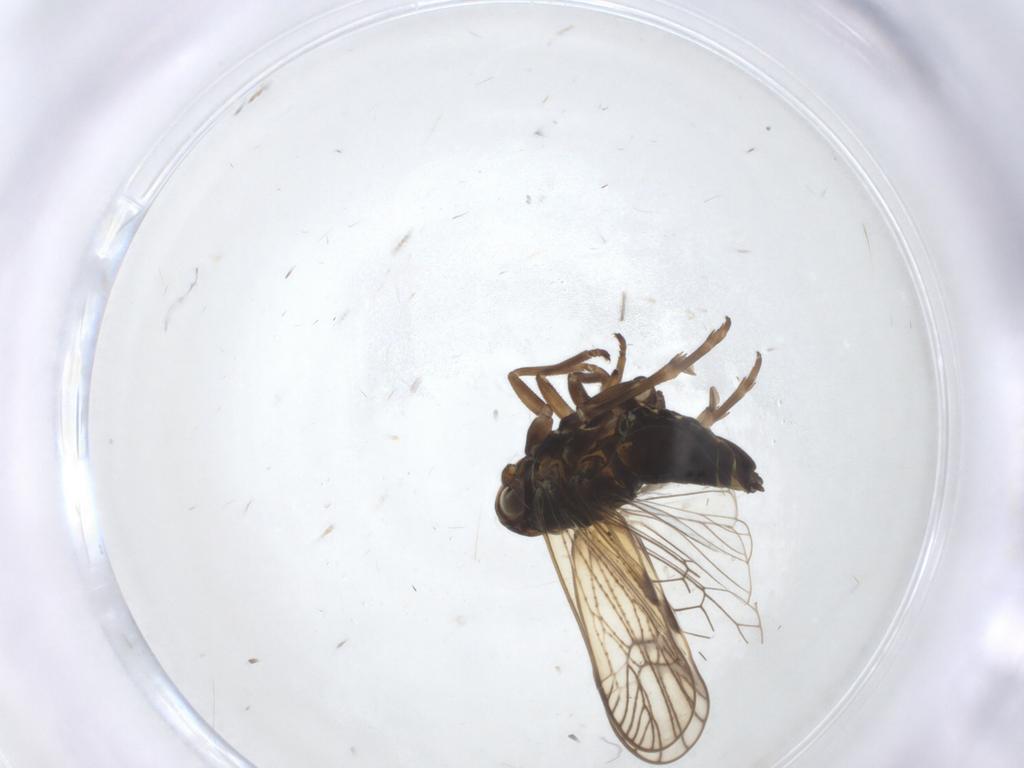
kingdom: Animalia
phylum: Arthropoda
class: Insecta
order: Hemiptera
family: Delphacidae
